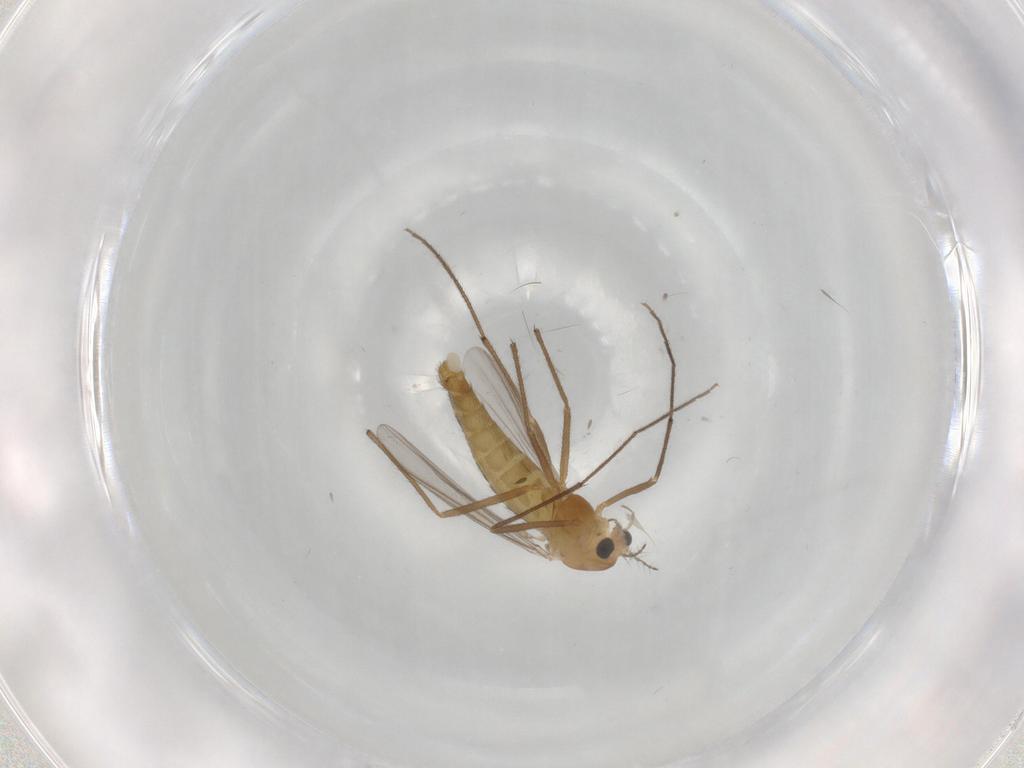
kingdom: Animalia
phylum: Arthropoda
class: Insecta
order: Diptera
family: Chironomidae
